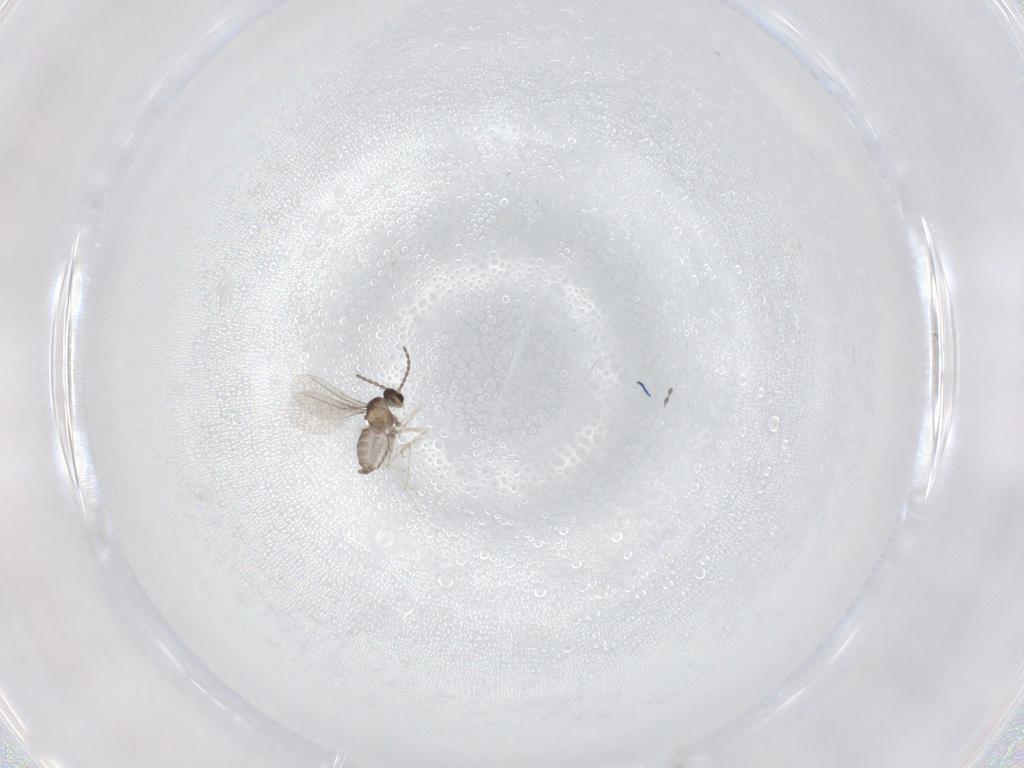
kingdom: Animalia
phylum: Arthropoda
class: Insecta
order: Diptera
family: Cecidomyiidae
